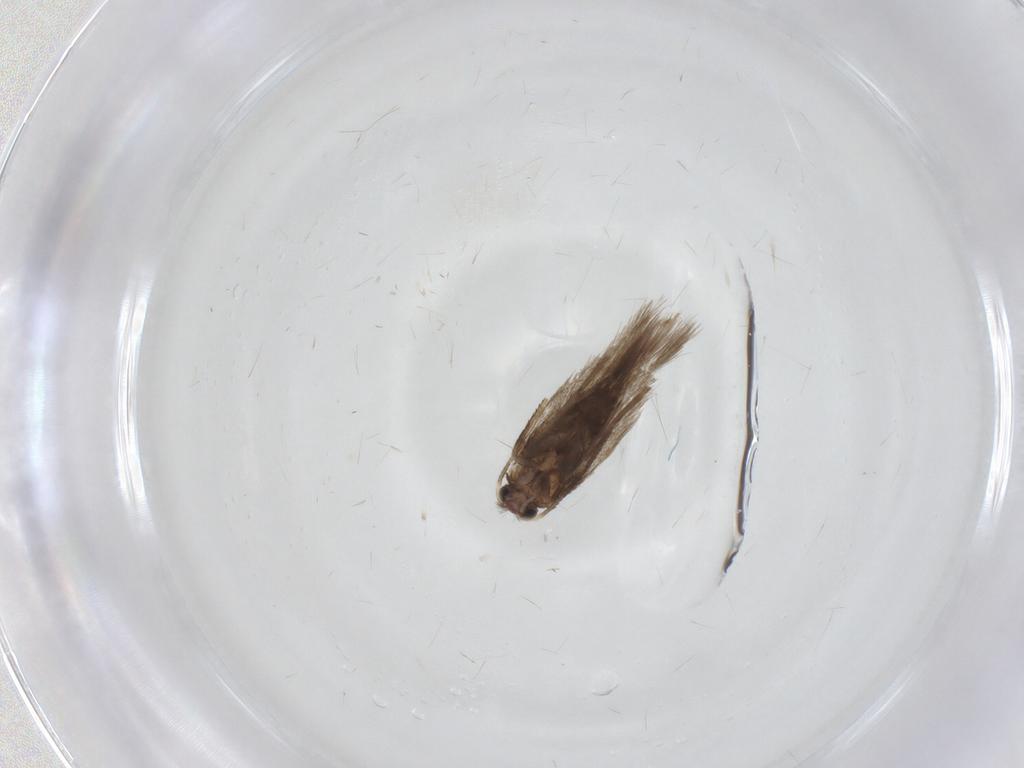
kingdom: Animalia
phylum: Arthropoda
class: Insecta
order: Lepidoptera
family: Nepticulidae
